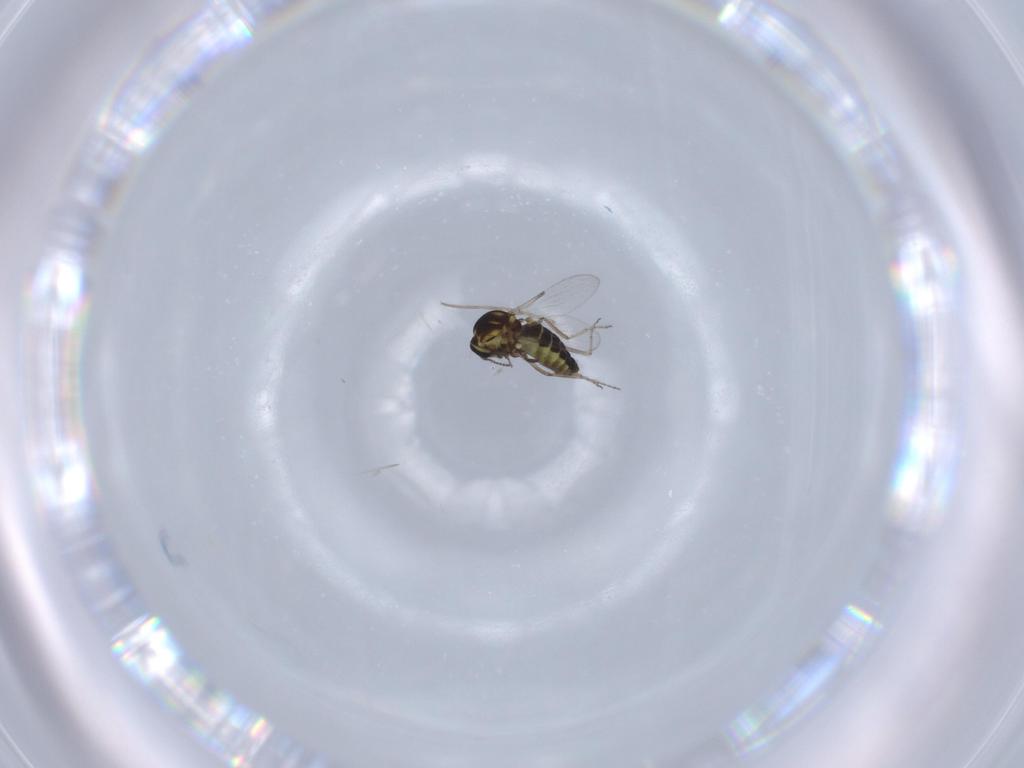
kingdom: Animalia
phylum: Arthropoda
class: Insecta
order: Diptera
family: Ceratopogonidae
